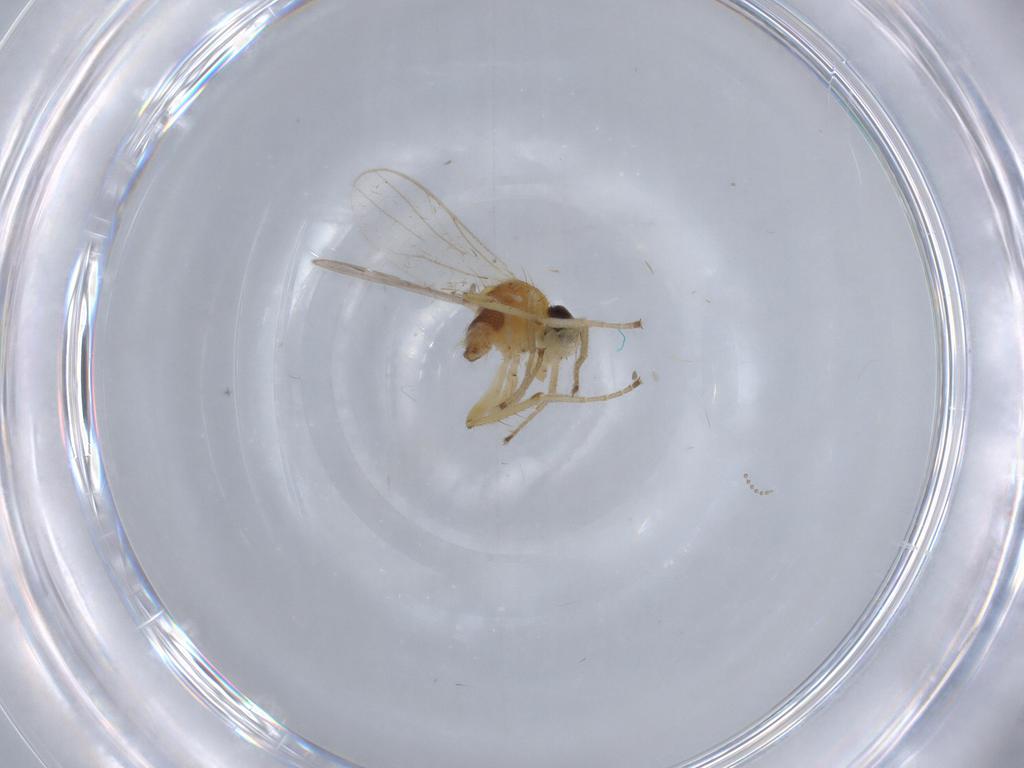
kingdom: Animalia
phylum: Arthropoda
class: Insecta
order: Diptera
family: Hybotidae
